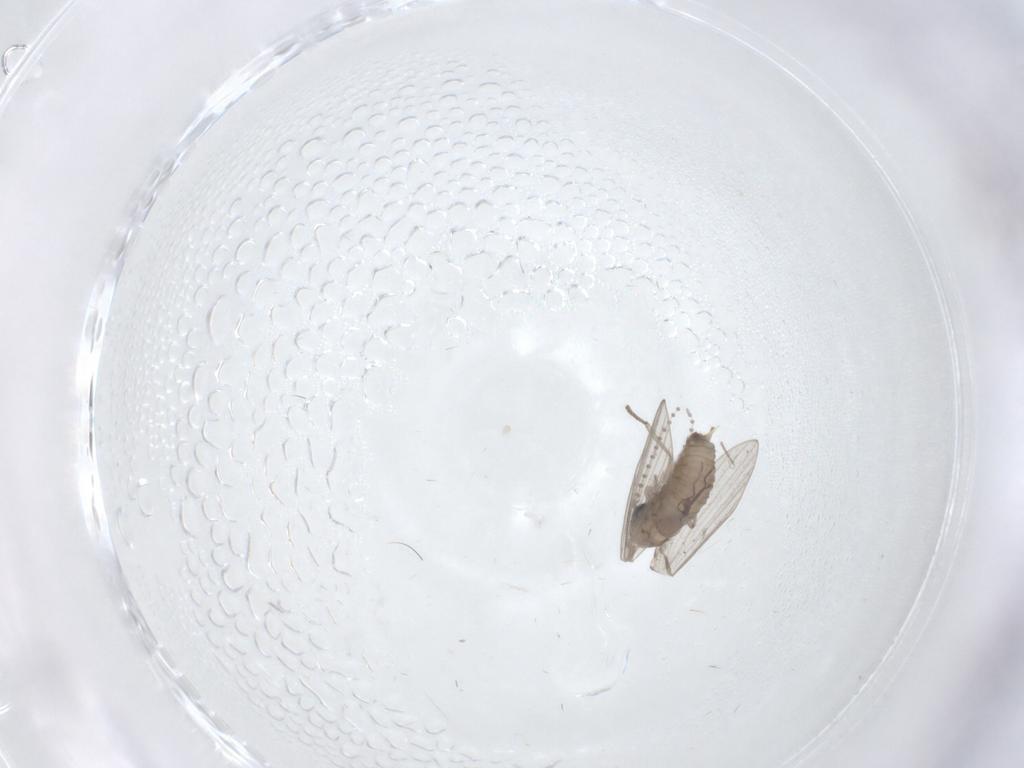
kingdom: Animalia
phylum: Arthropoda
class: Insecta
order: Diptera
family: Psychodidae
